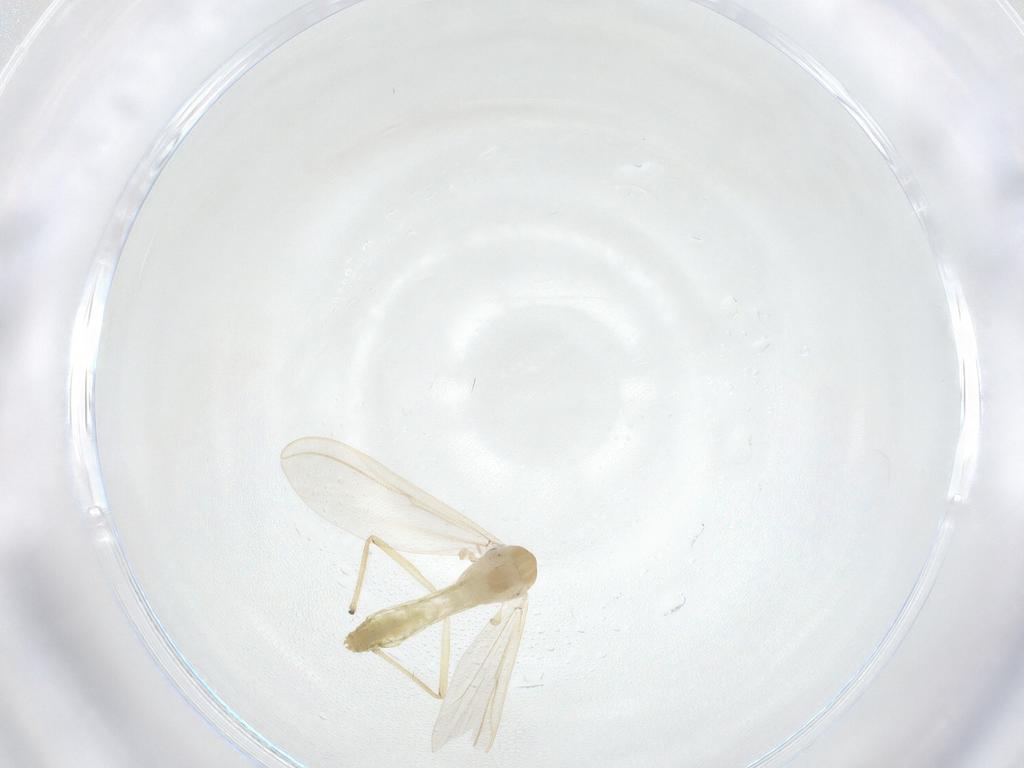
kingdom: Animalia
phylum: Arthropoda
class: Insecta
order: Diptera
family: Chironomidae
